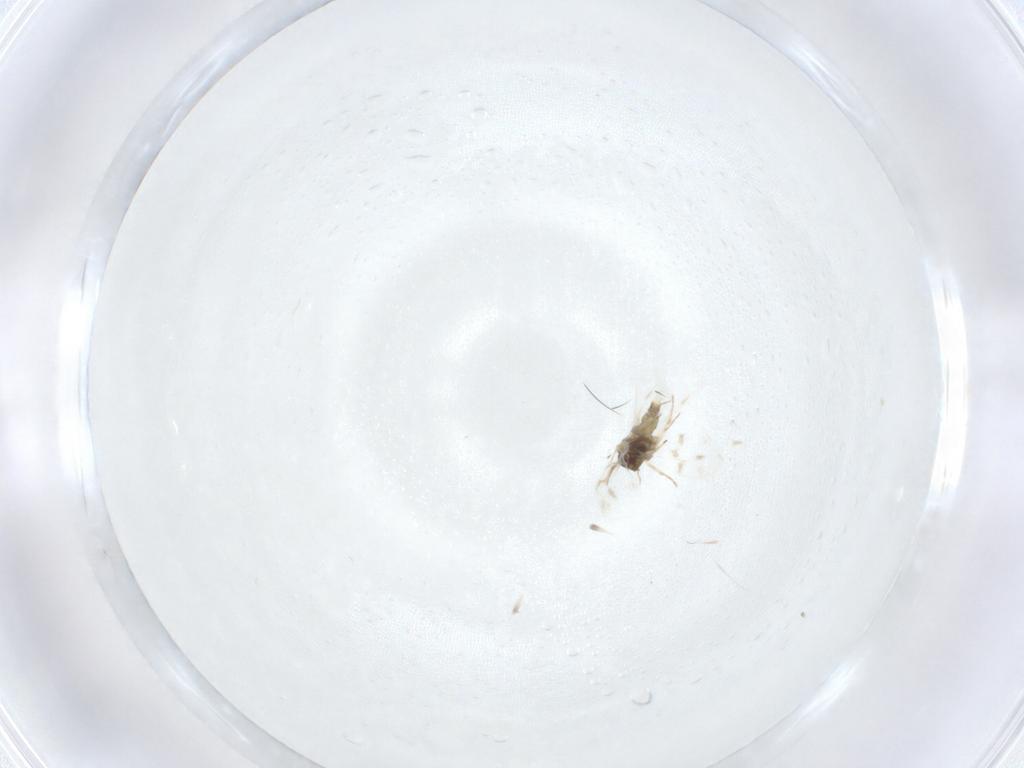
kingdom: Animalia
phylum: Arthropoda
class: Insecta
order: Hemiptera
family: Aleyrodidae
